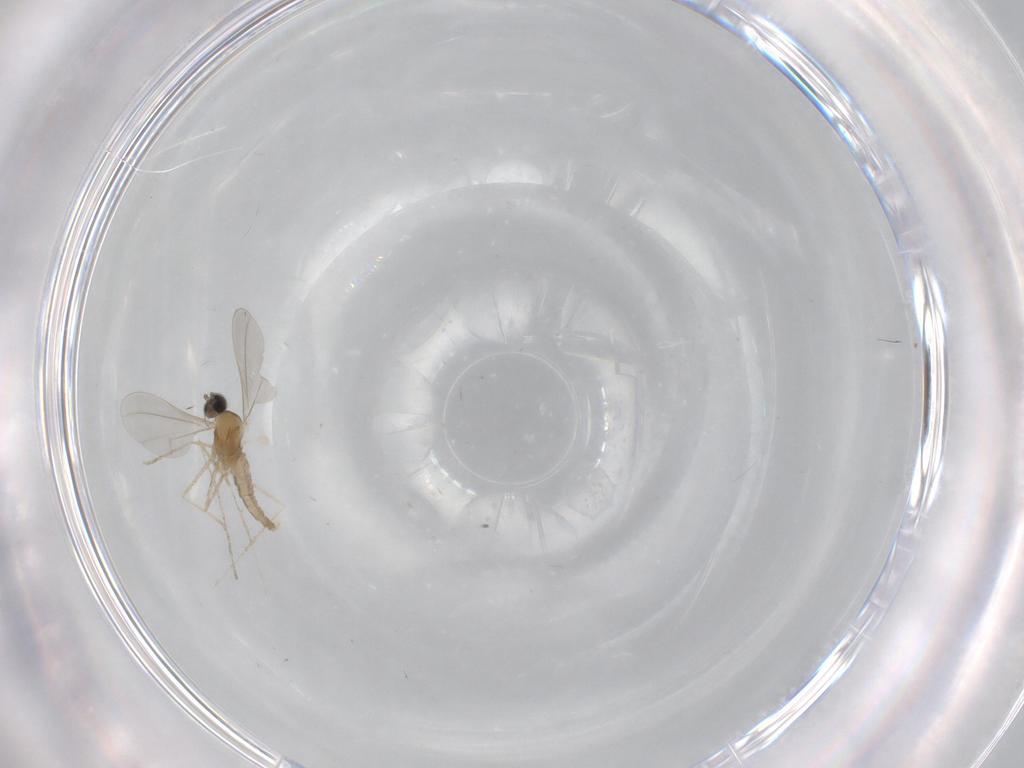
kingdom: Animalia
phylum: Arthropoda
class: Insecta
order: Diptera
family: Cecidomyiidae
